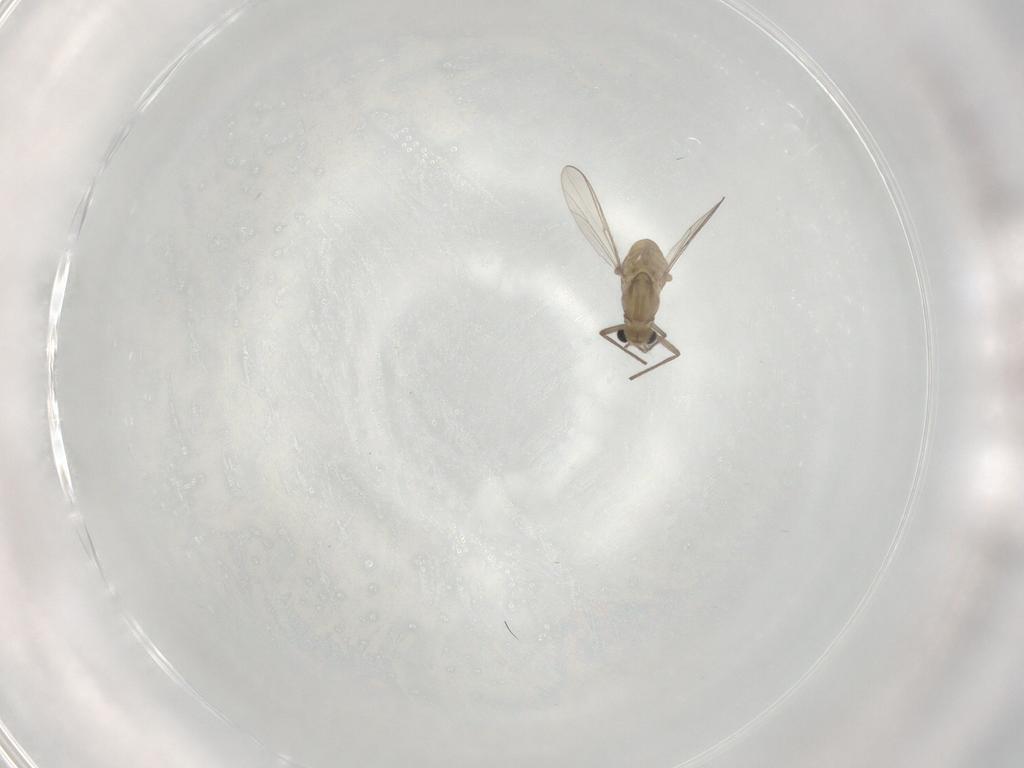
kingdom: Animalia
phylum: Arthropoda
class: Insecta
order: Diptera
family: Chironomidae
